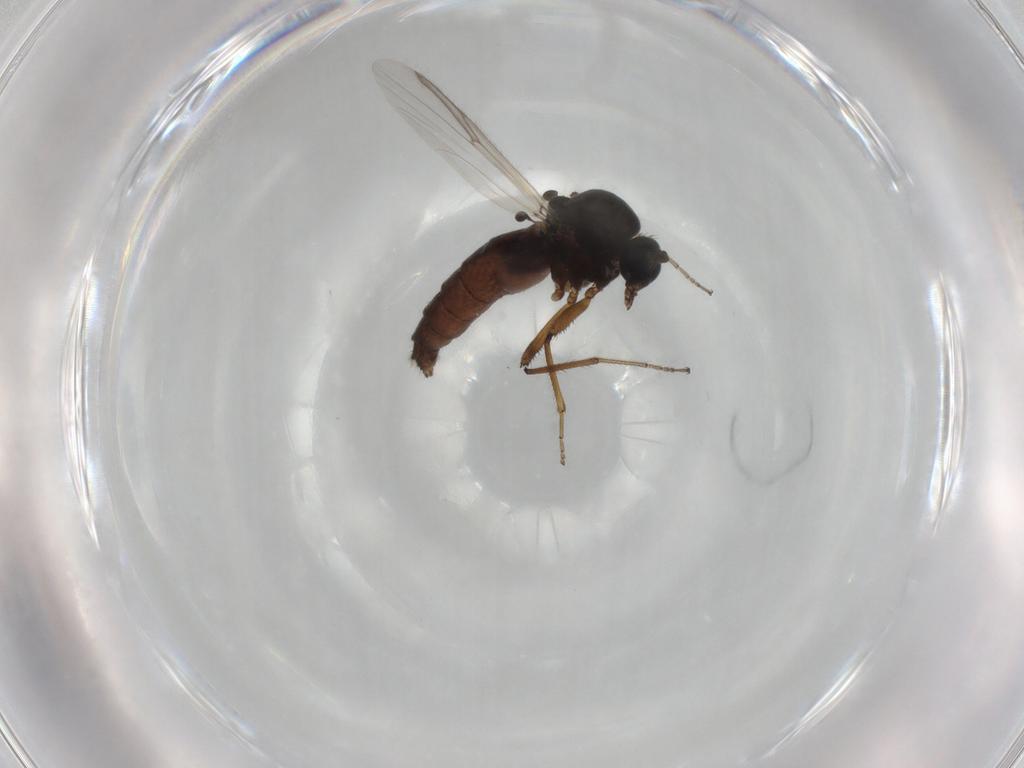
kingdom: Animalia
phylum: Arthropoda
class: Insecta
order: Diptera
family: Ceratopogonidae
